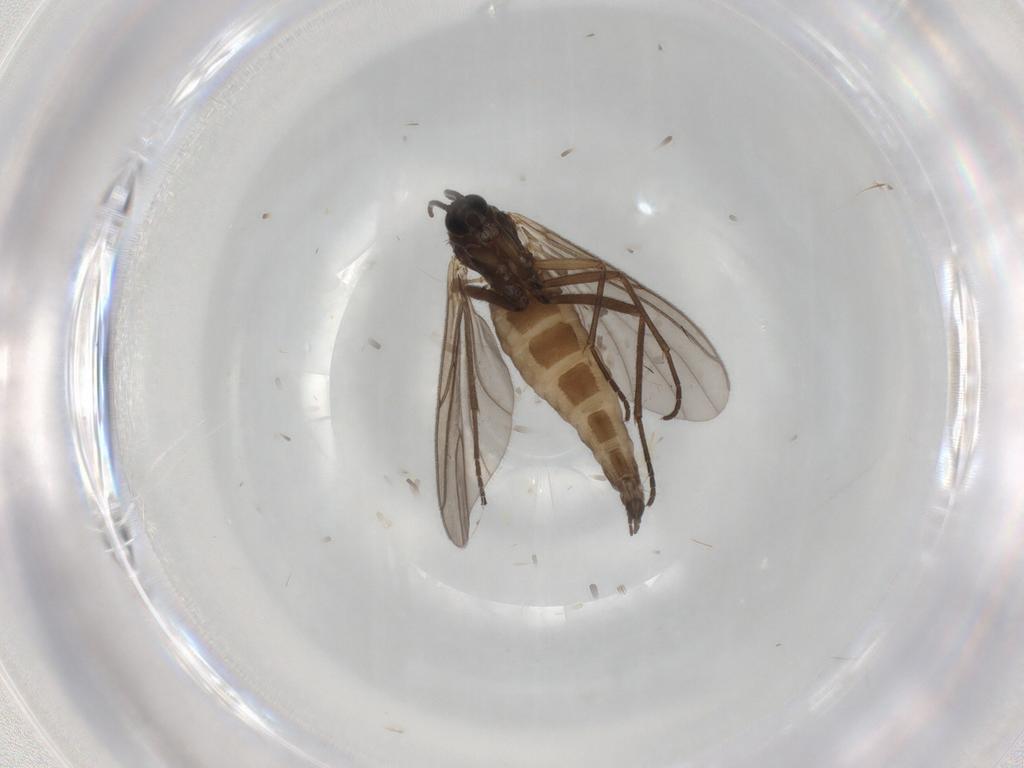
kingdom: Animalia
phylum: Arthropoda
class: Insecta
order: Diptera
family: Sciaridae
